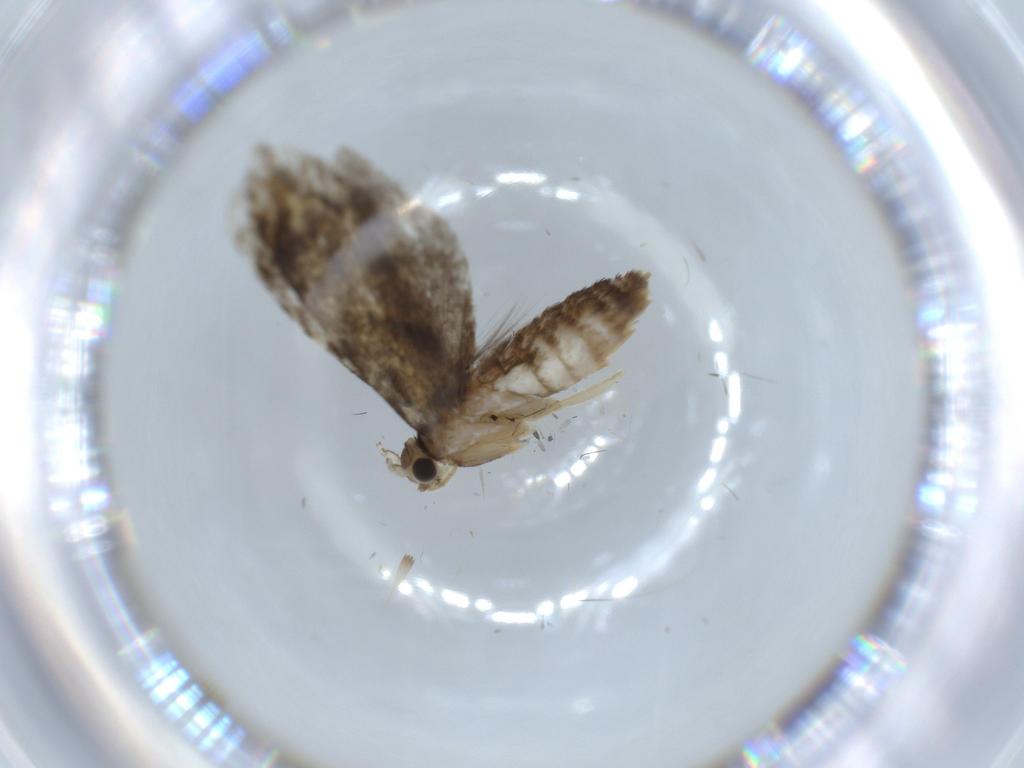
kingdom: Animalia
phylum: Arthropoda
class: Insecta
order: Lepidoptera
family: Tineidae
